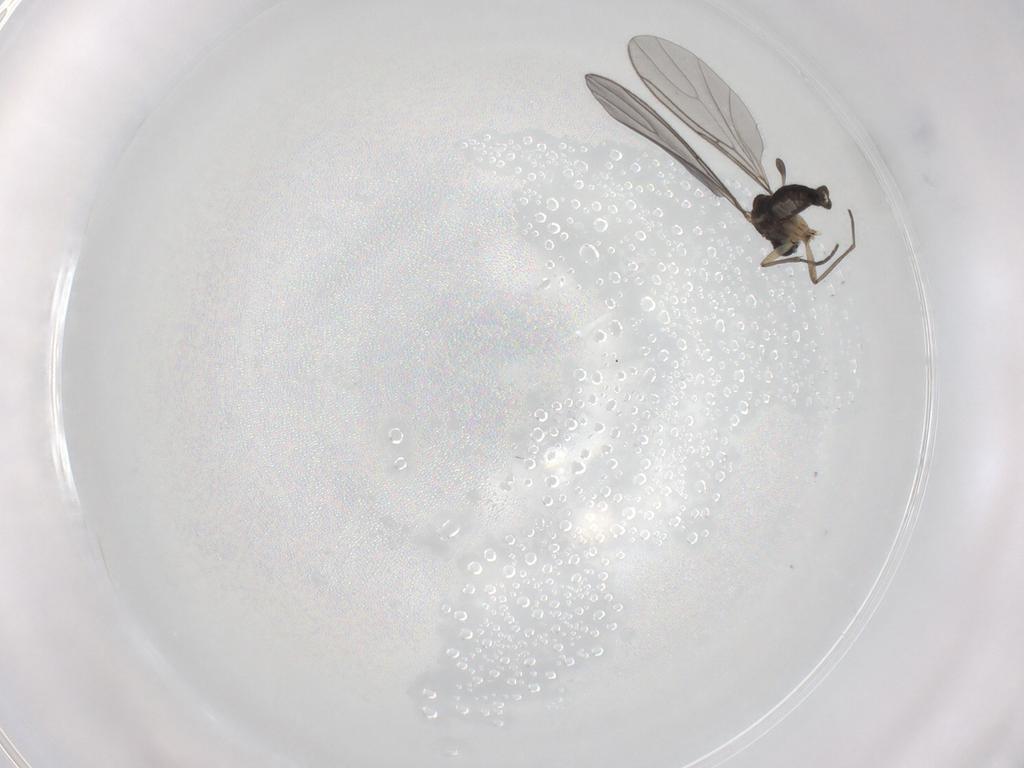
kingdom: Animalia
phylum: Arthropoda
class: Insecta
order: Diptera
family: Sciaridae
